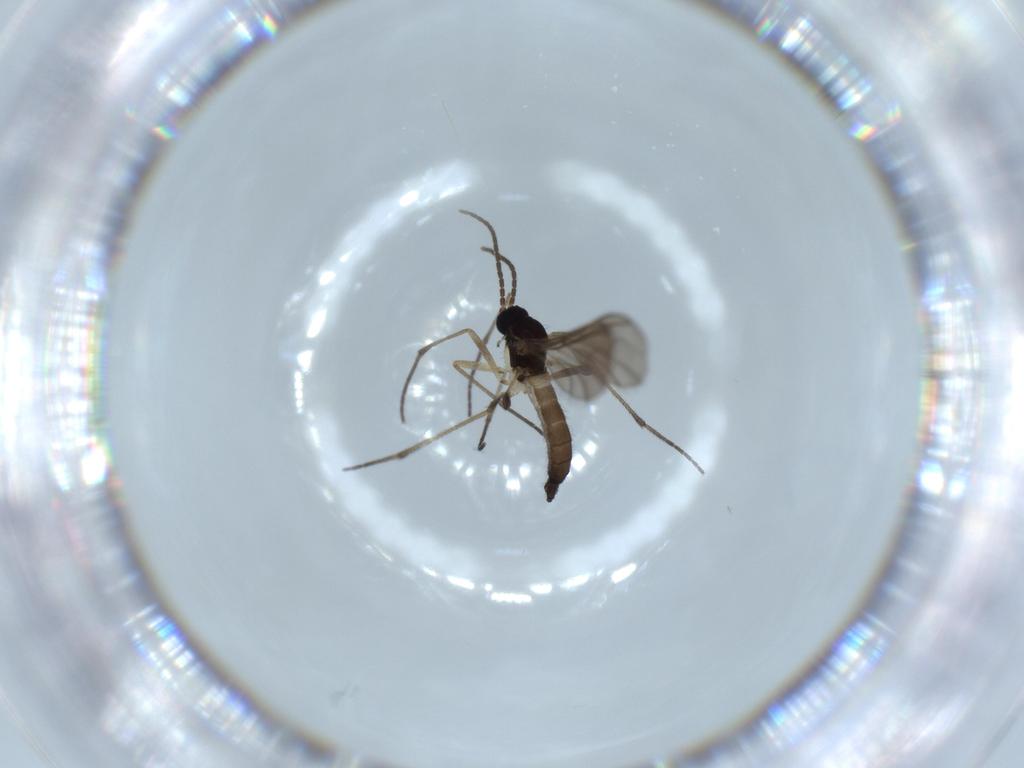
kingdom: Animalia
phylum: Arthropoda
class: Insecta
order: Diptera
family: Sciaridae
